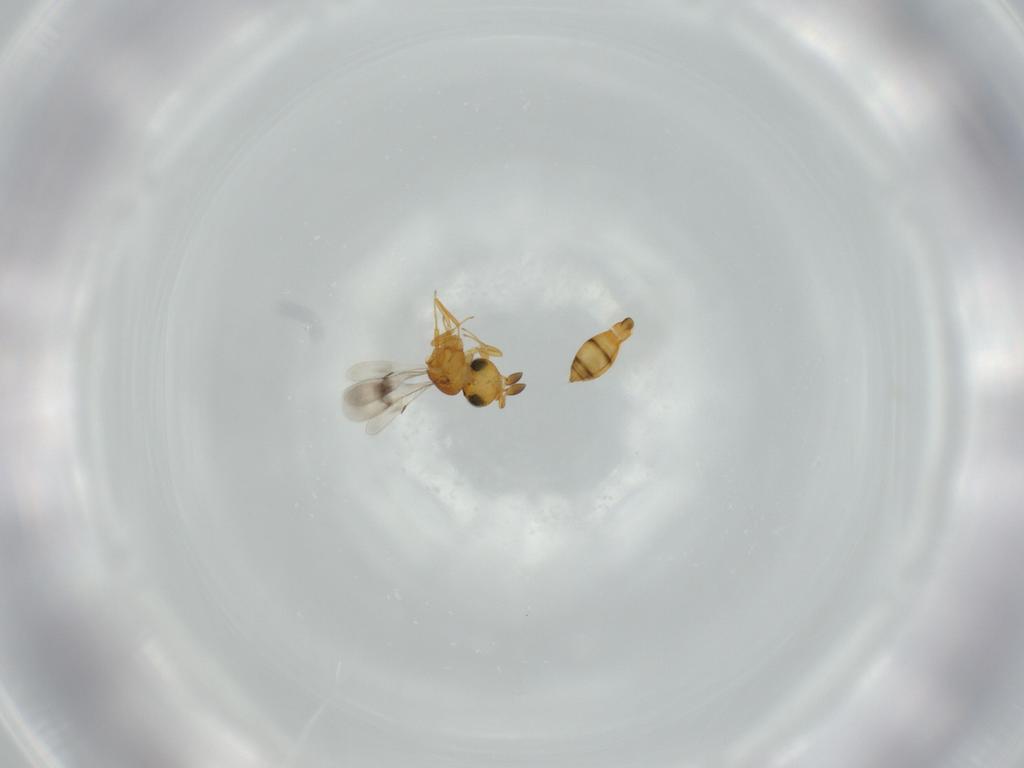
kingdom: Animalia
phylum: Arthropoda
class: Insecta
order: Hymenoptera
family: Scelionidae
